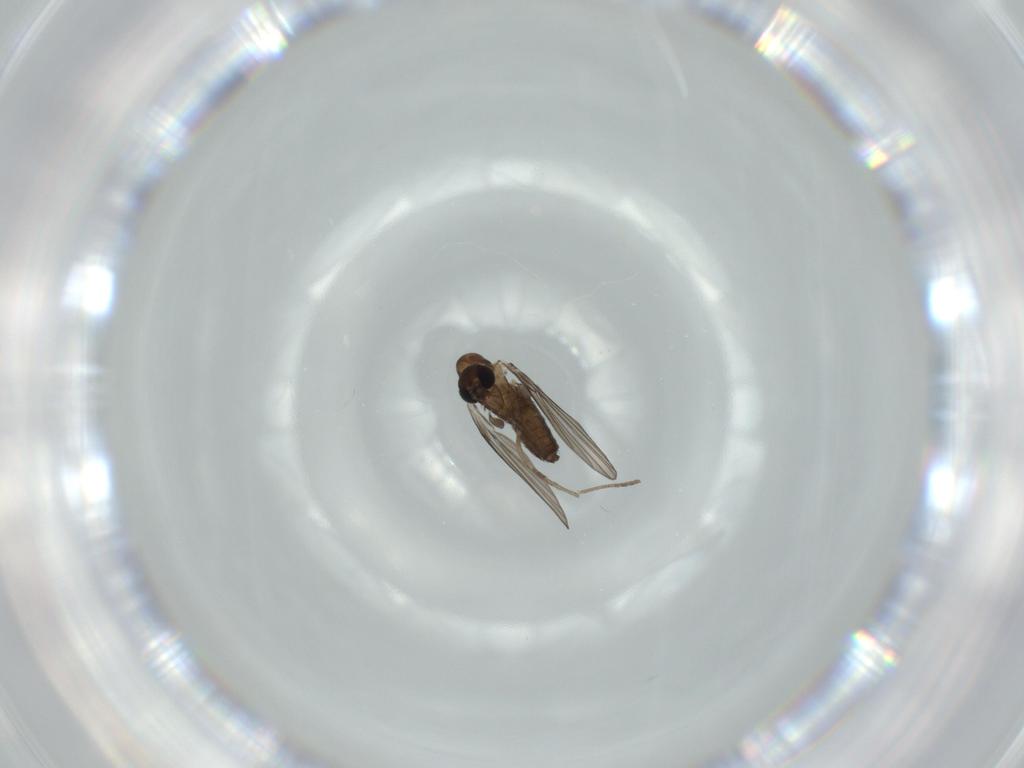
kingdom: Animalia
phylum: Arthropoda
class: Insecta
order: Diptera
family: Psychodidae
